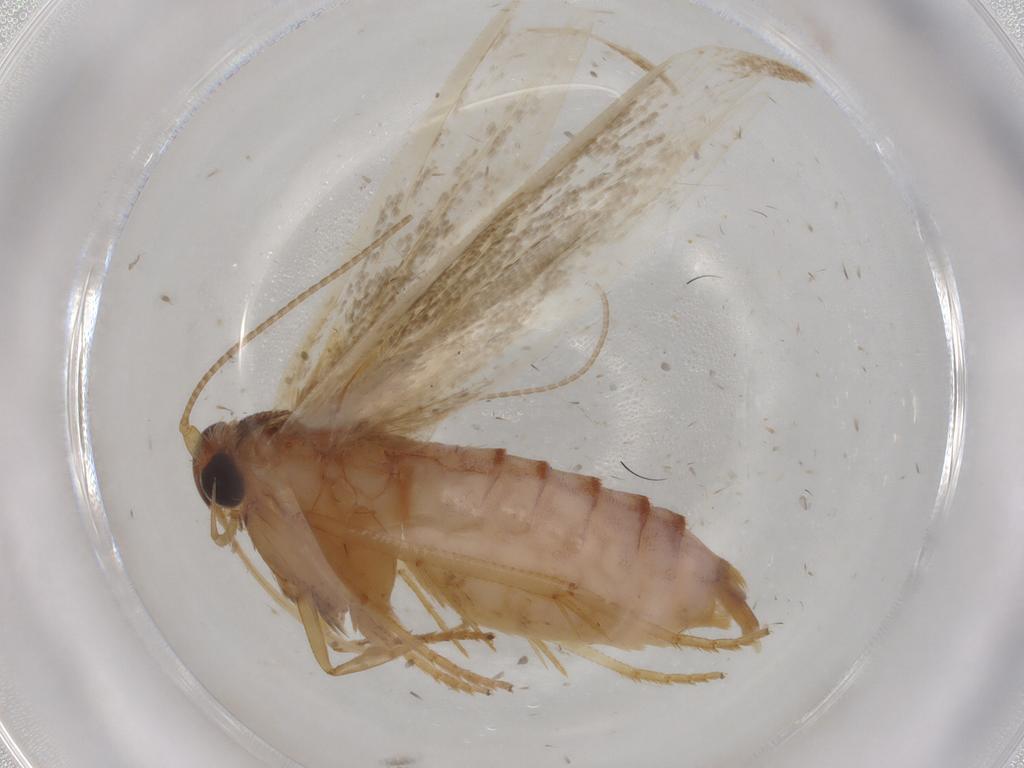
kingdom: Animalia
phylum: Arthropoda
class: Insecta
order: Lepidoptera
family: Coleophoridae
